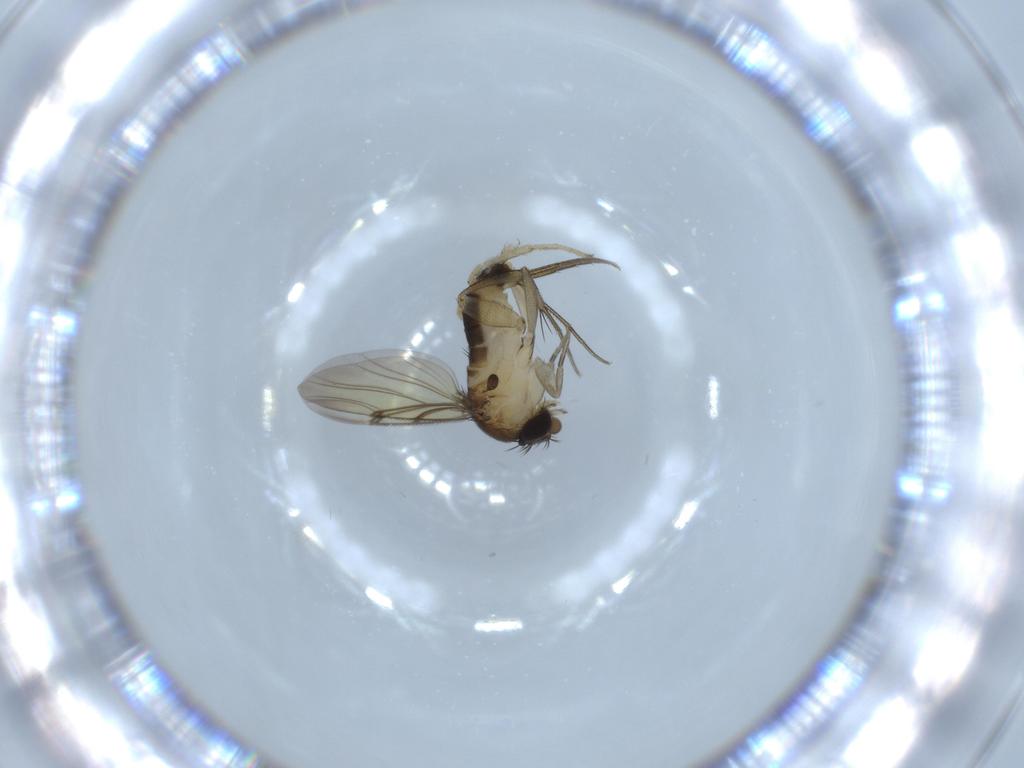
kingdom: Animalia
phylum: Arthropoda
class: Insecta
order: Diptera
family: Hybotidae
